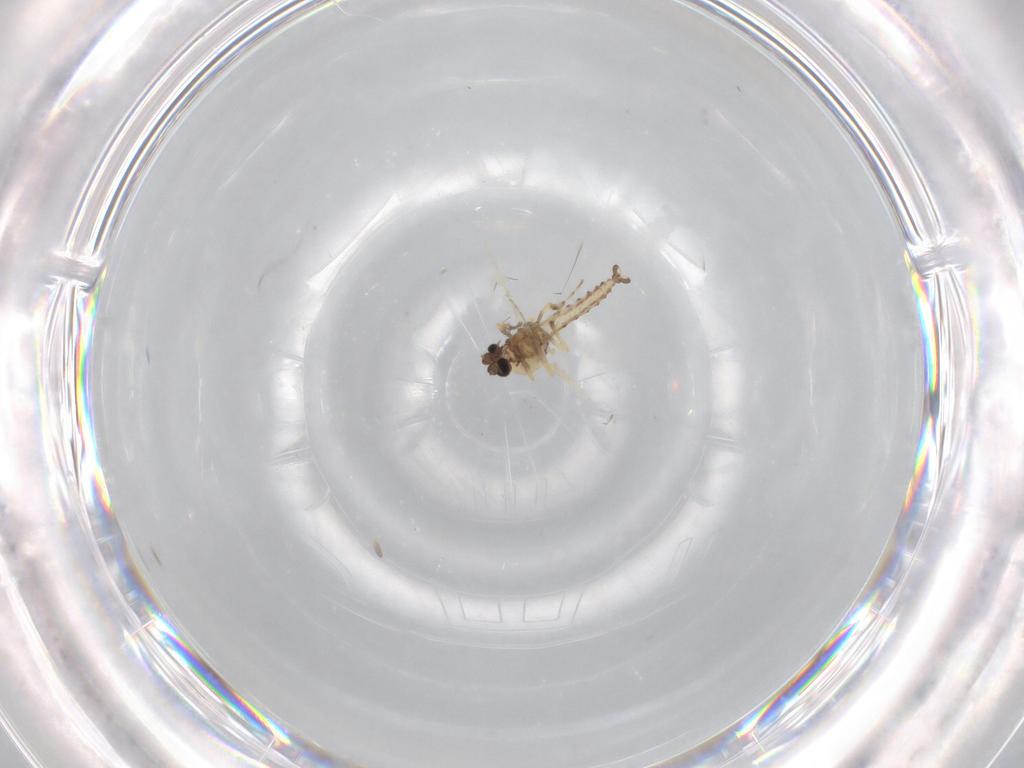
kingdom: Animalia
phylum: Arthropoda
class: Insecta
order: Diptera
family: Ceratopogonidae
